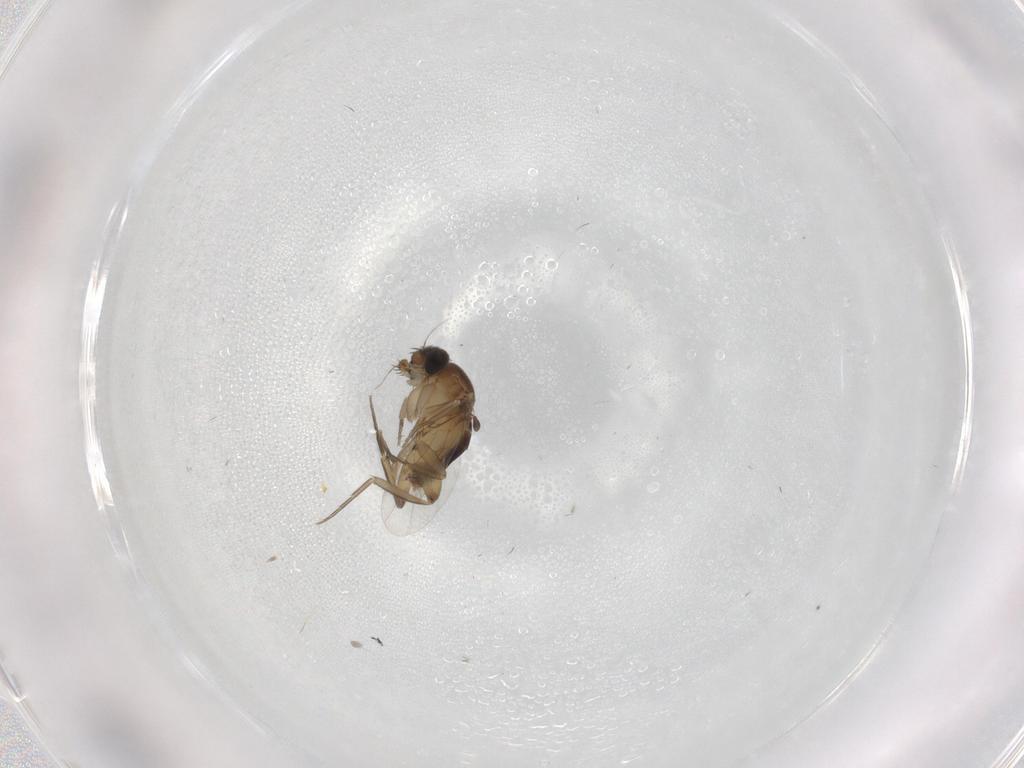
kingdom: Animalia
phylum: Arthropoda
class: Insecta
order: Diptera
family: Phoridae
